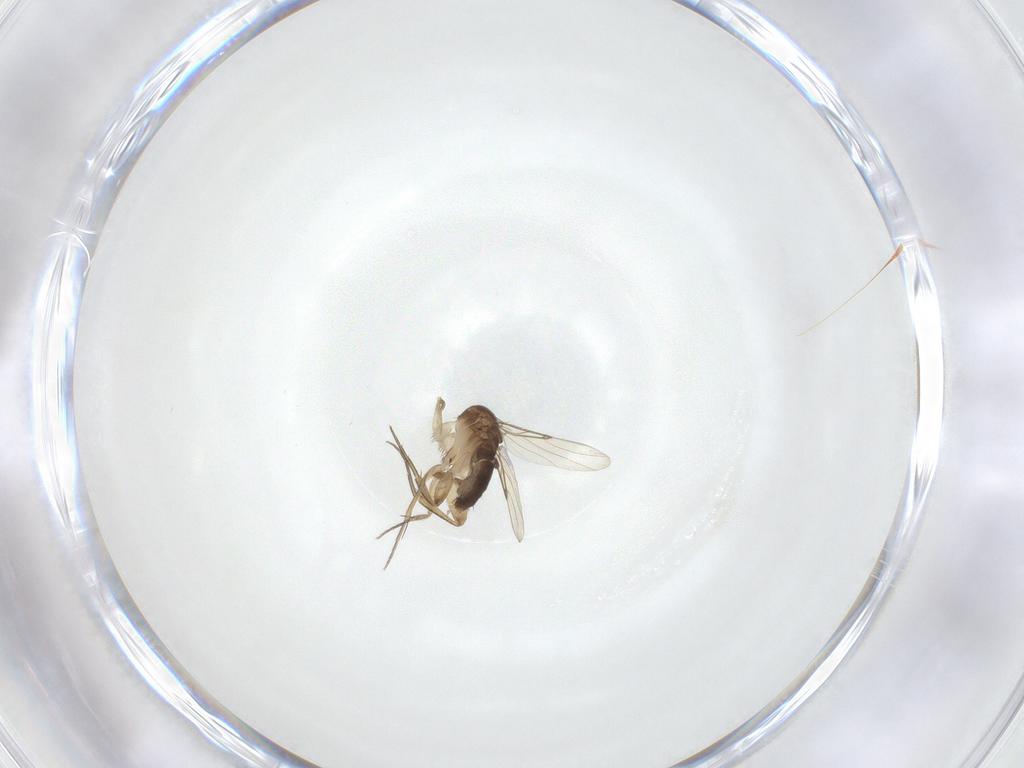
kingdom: Animalia
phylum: Arthropoda
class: Insecta
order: Diptera
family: Phoridae
